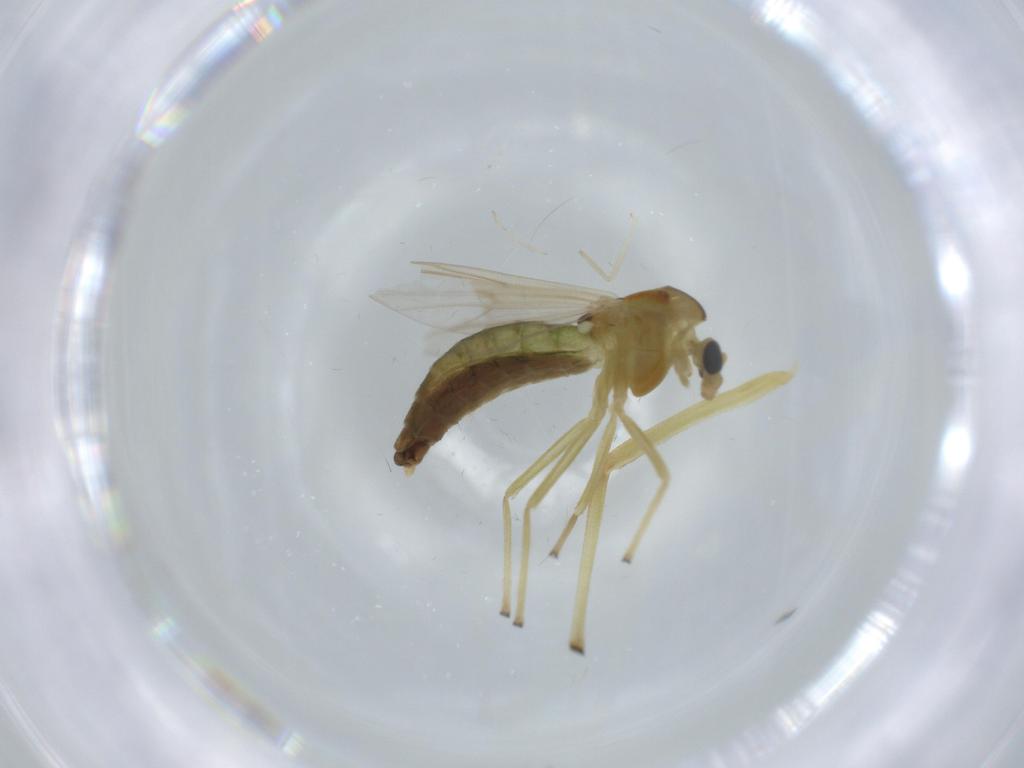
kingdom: Animalia
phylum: Arthropoda
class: Insecta
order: Diptera
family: Chironomidae
